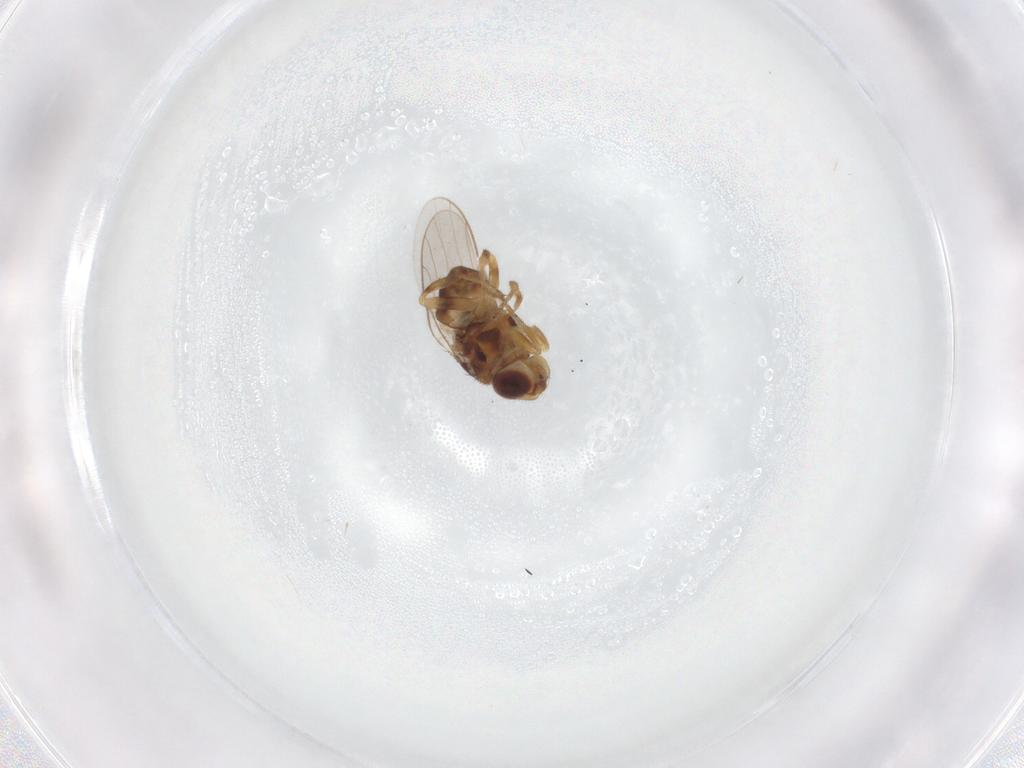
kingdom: Animalia
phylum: Arthropoda
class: Insecta
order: Diptera
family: Chloropidae
